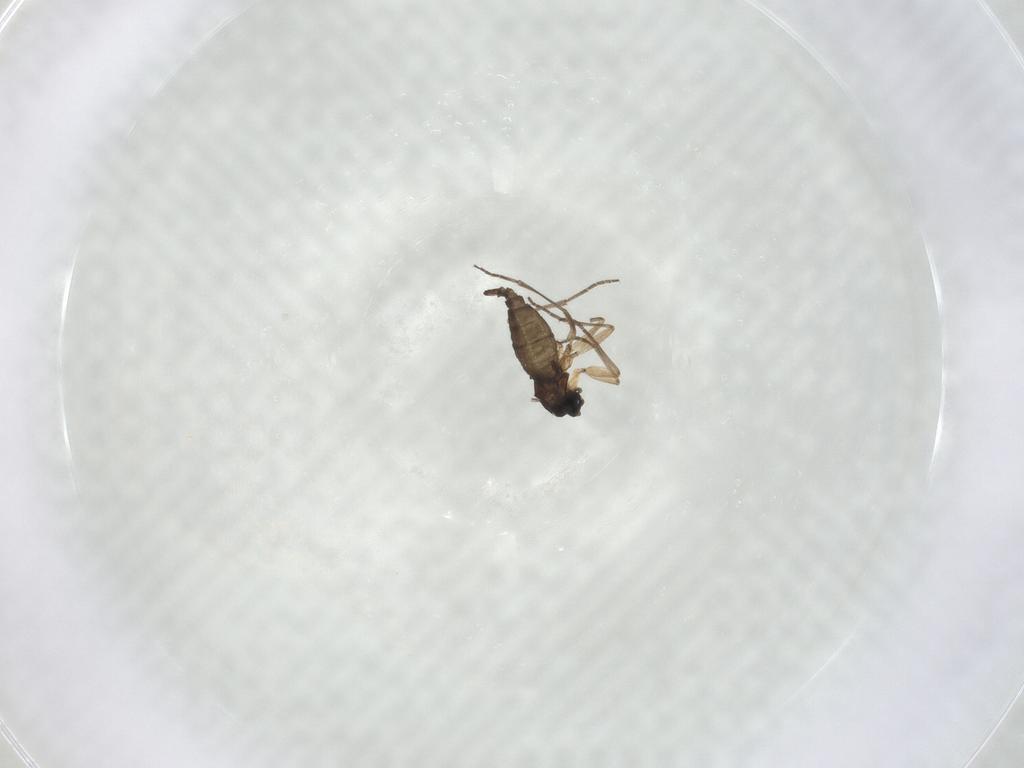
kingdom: Animalia
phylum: Arthropoda
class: Insecta
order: Diptera
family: Sciaridae
